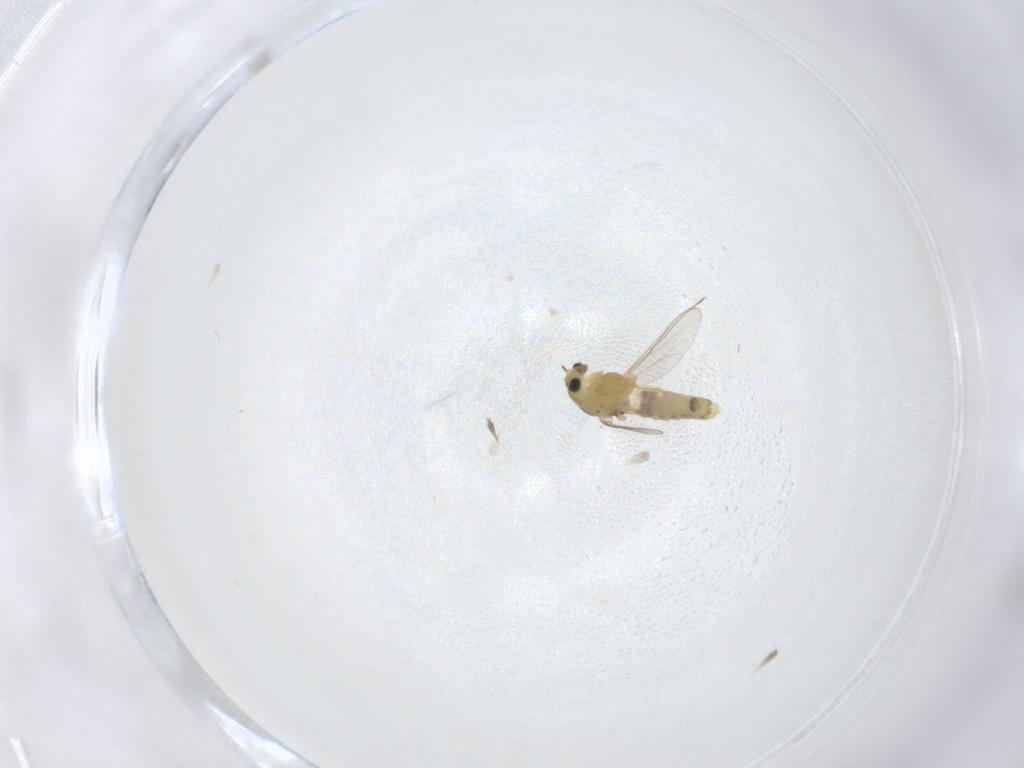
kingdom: Animalia
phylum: Arthropoda
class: Insecta
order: Diptera
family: Chironomidae
